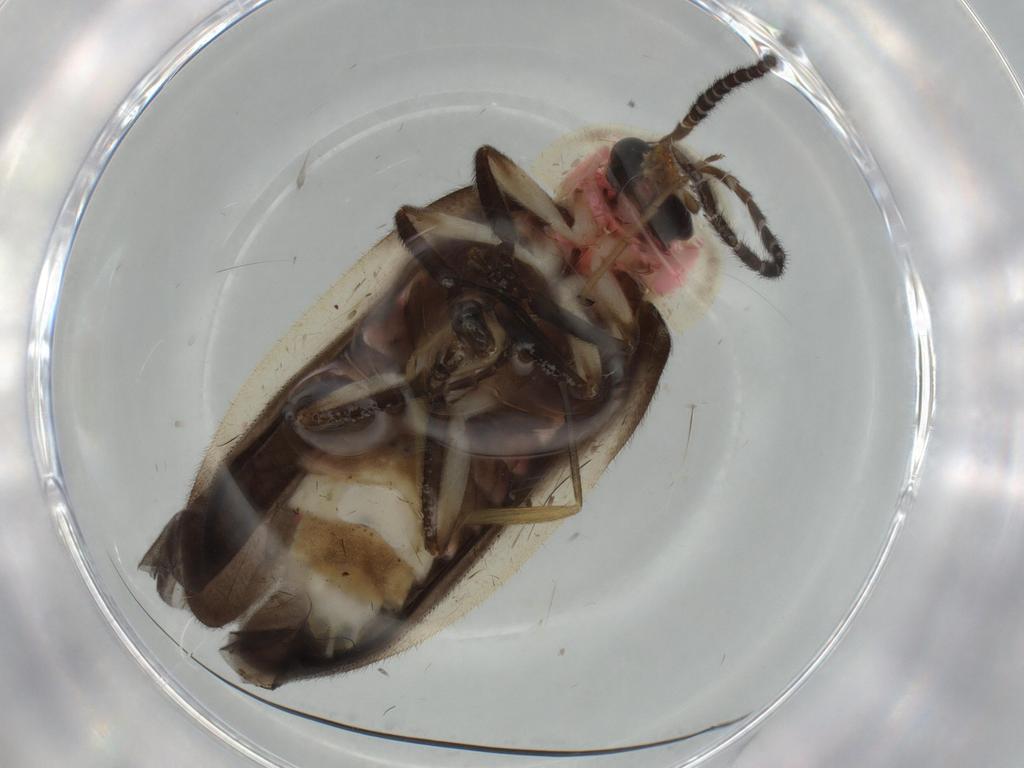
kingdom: Animalia
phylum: Arthropoda
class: Insecta
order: Coleoptera
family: Lampyridae
